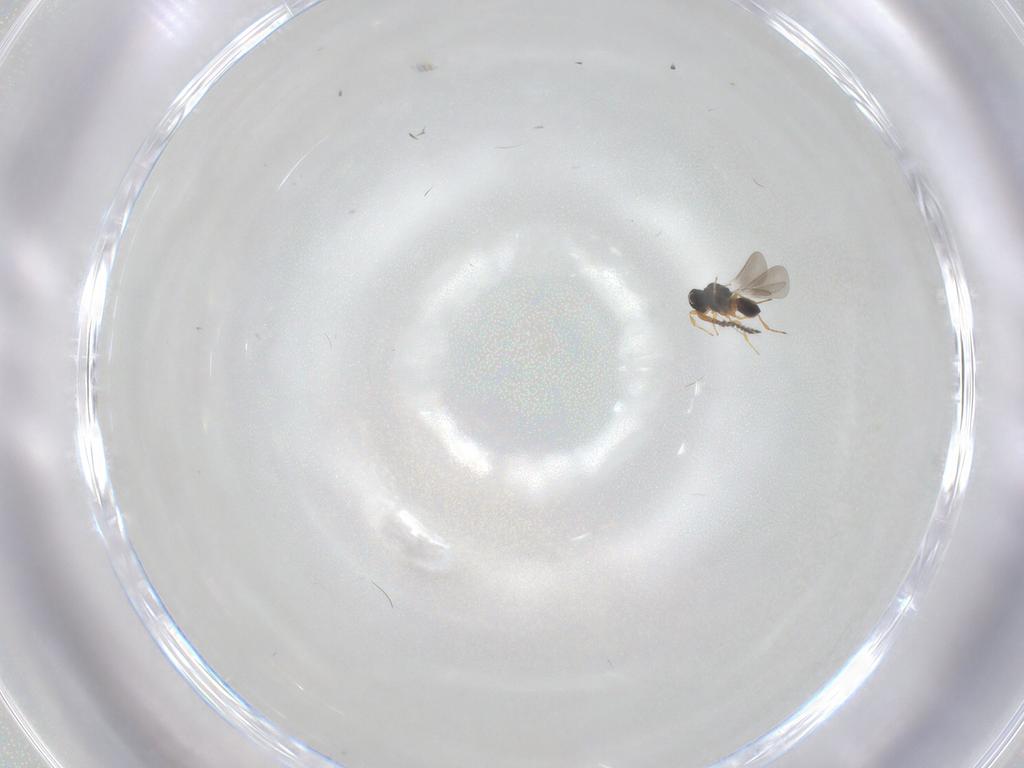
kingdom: Animalia
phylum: Arthropoda
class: Insecta
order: Hymenoptera
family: Platygastridae
